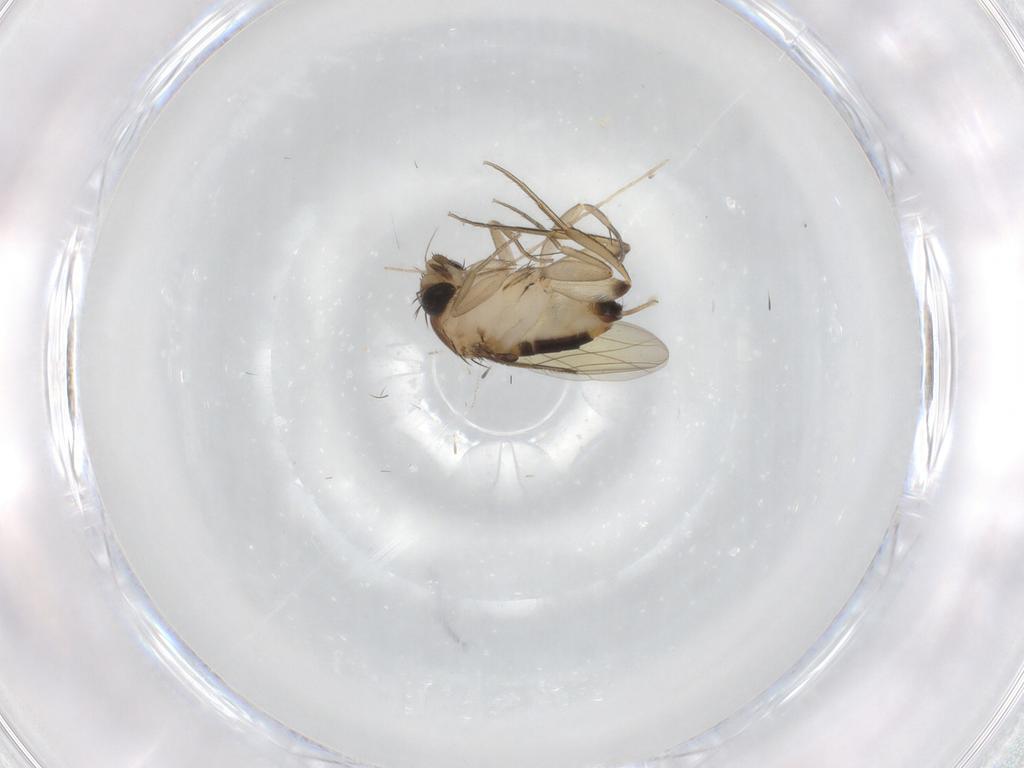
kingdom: Animalia
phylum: Arthropoda
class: Insecta
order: Diptera
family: Phoridae
